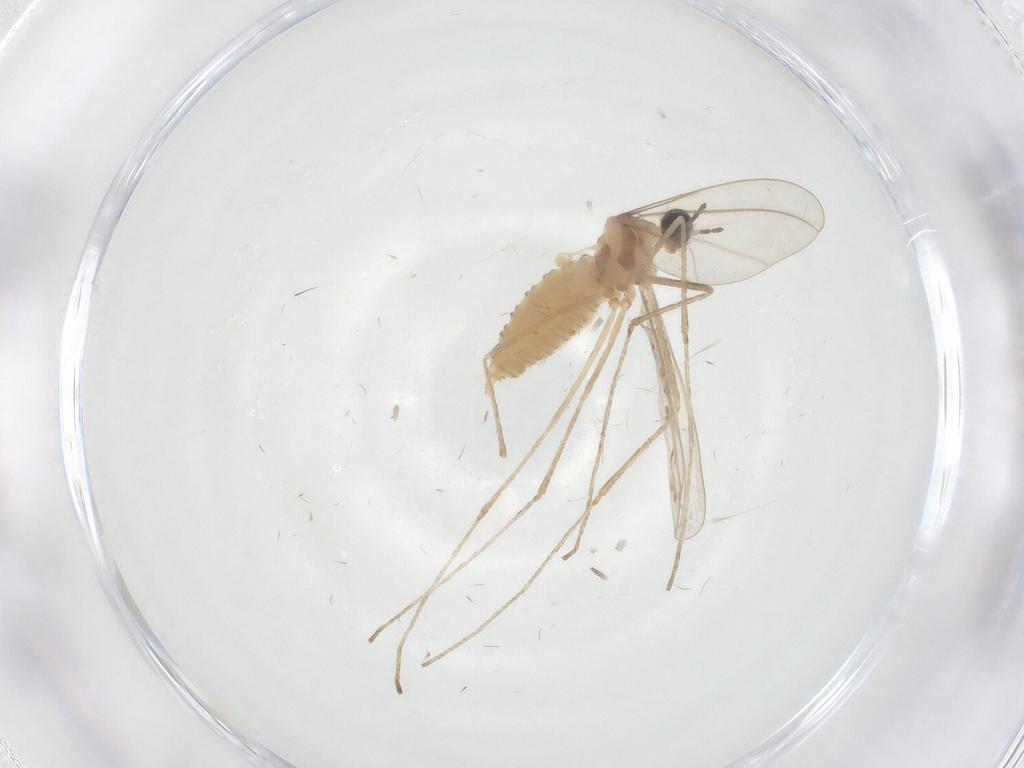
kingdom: Animalia
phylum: Arthropoda
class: Insecta
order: Diptera
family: Cecidomyiidae
